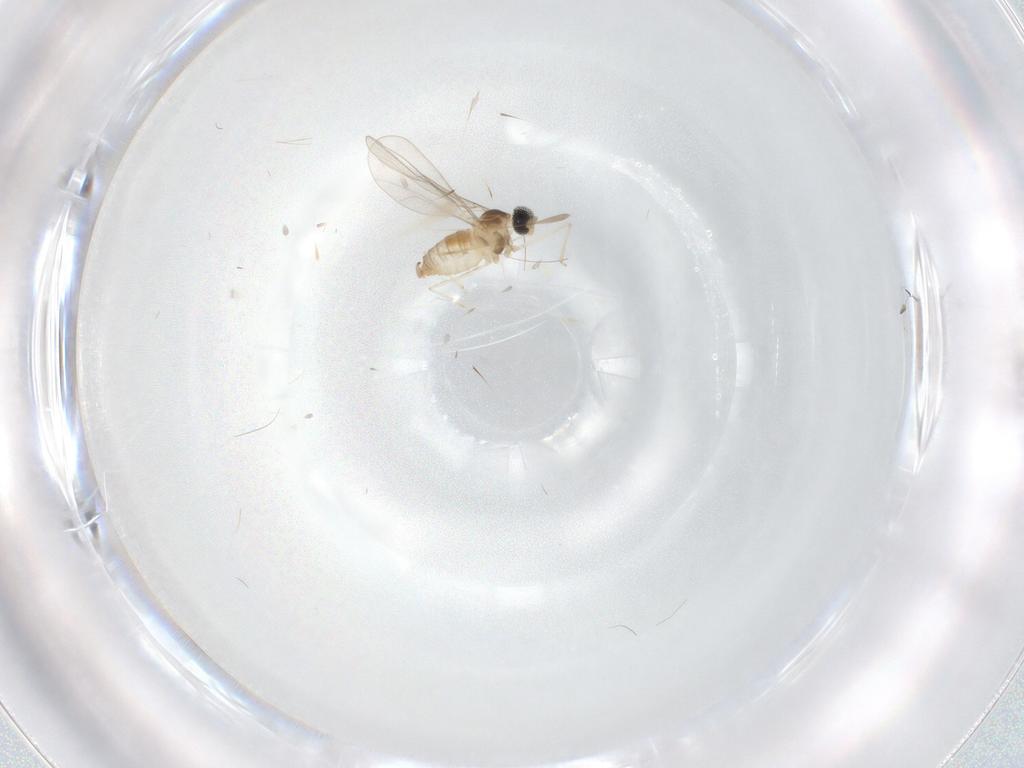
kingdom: Animalia
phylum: Arthropoda
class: Insecta
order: Diptera
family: Cecidomyiidae
